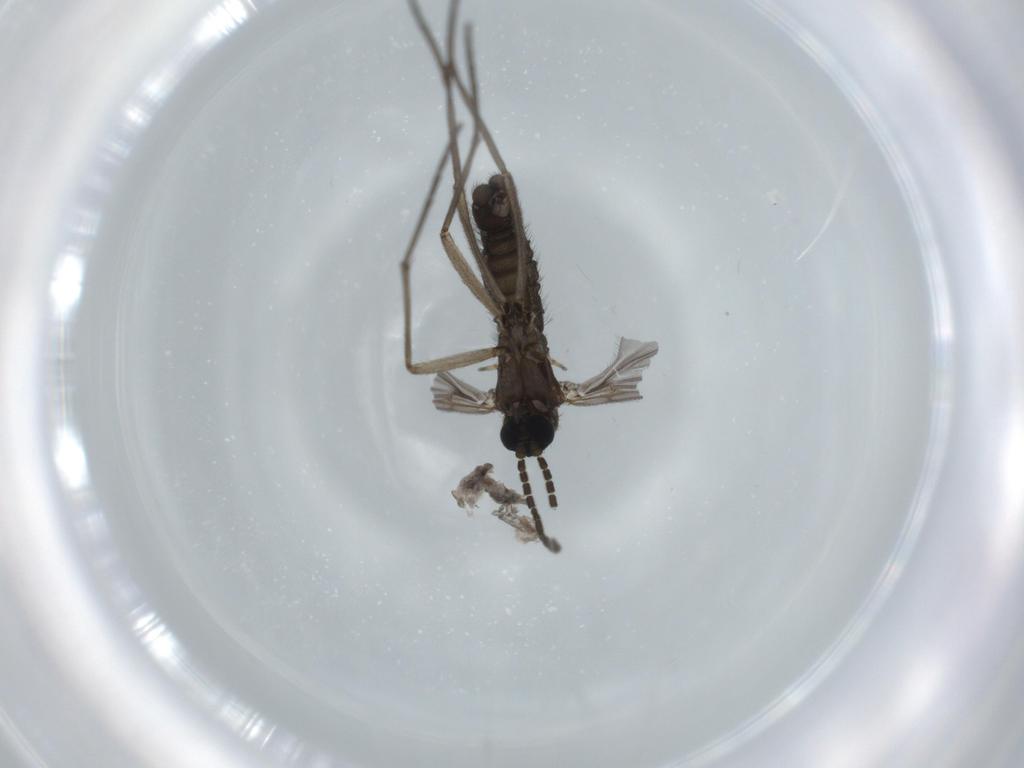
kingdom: Animalia
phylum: Arthropoda
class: Insecta
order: Diptera
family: Sciaridae
